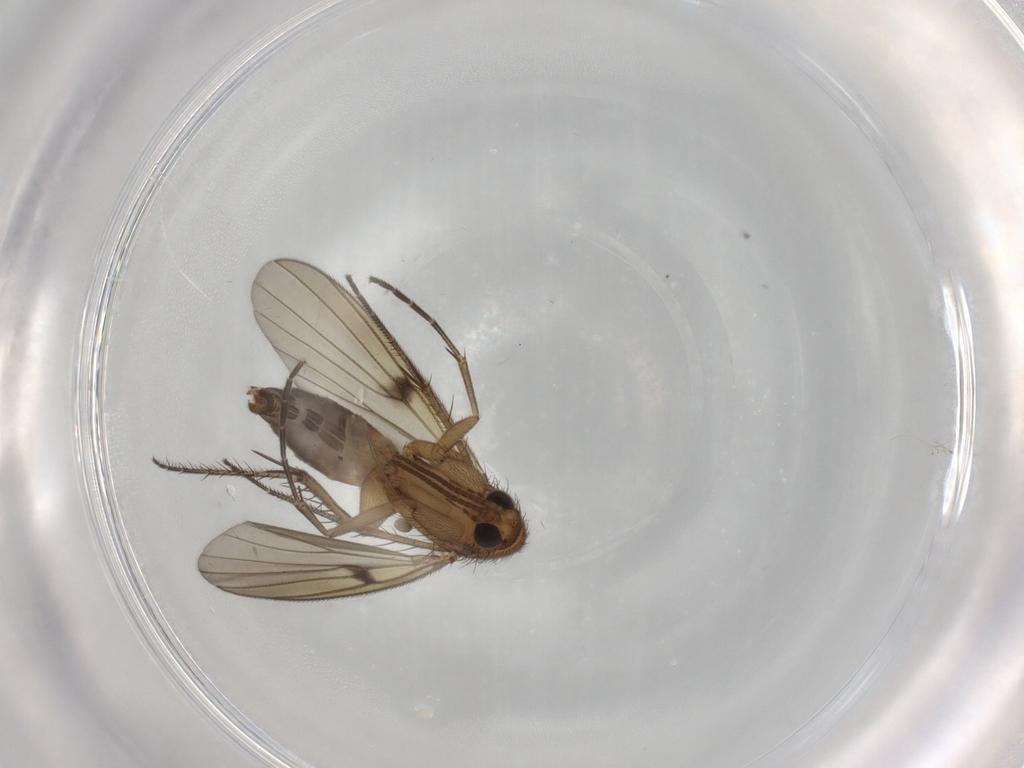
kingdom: Animalia
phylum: Arthropoda
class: Insecta
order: Diptera
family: Mycetophilidae
